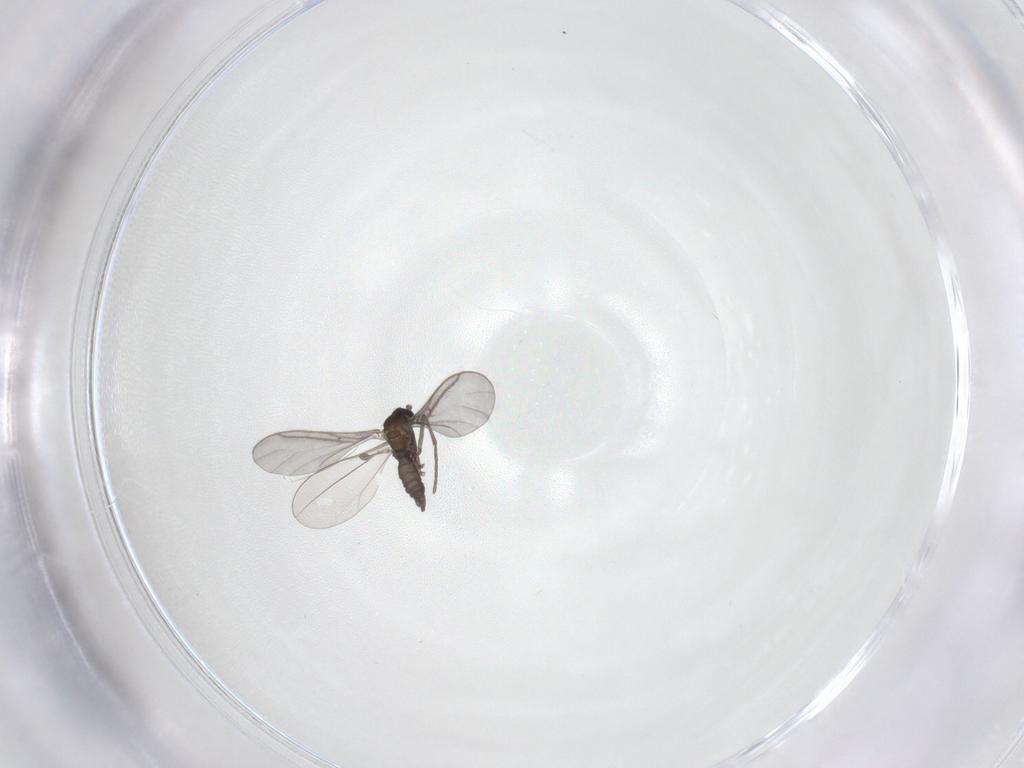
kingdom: Animalia
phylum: Arthropoda
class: Insecta
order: Diptera
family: Sciaridae
